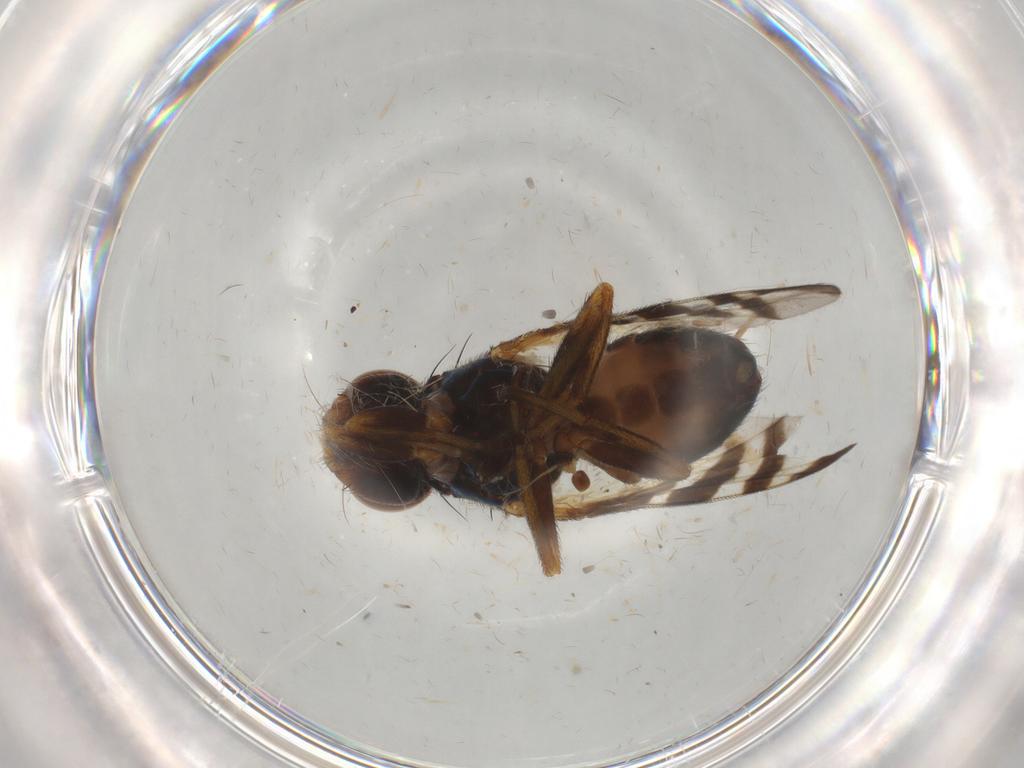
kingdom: Animalia
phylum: Arthropoda
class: Insecta
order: Diptera
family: Platystomatidae
